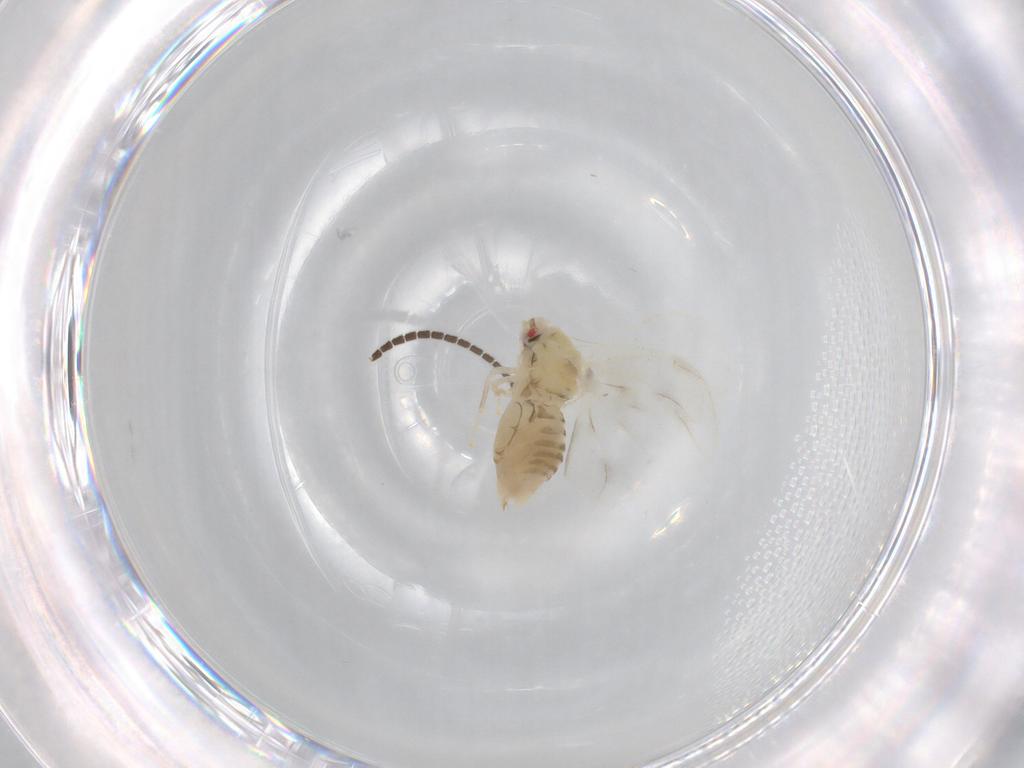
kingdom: Animalia
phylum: Arthropoda
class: Insecta
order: Hemiptera
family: Aleyrodidae
